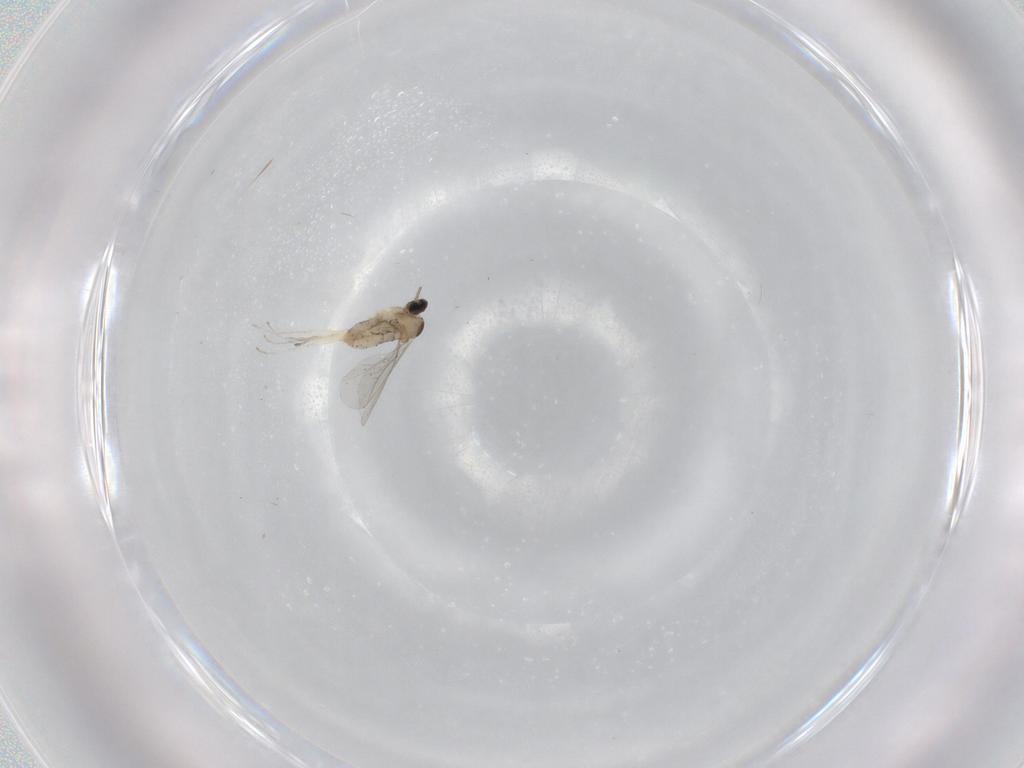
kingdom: Animalia
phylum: Arthropoda
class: Insecta
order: Diptera
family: Cecidomyiidae
